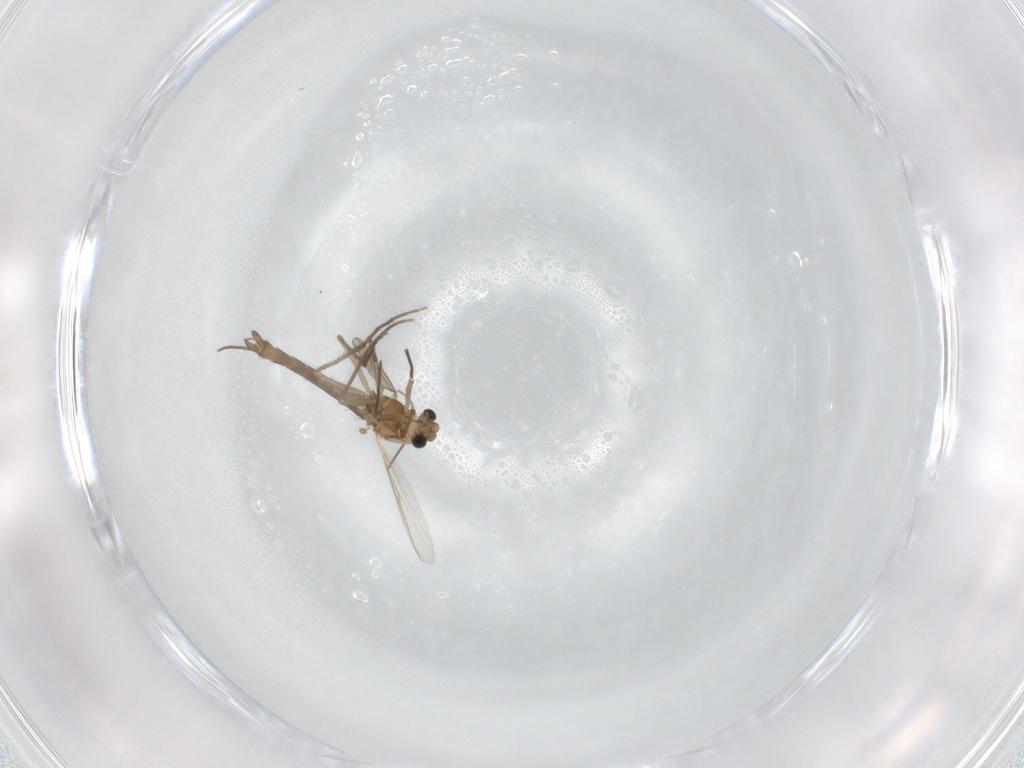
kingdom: Animalia
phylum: Arthropoda
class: Insecta
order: Diptera
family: Chironomidae
